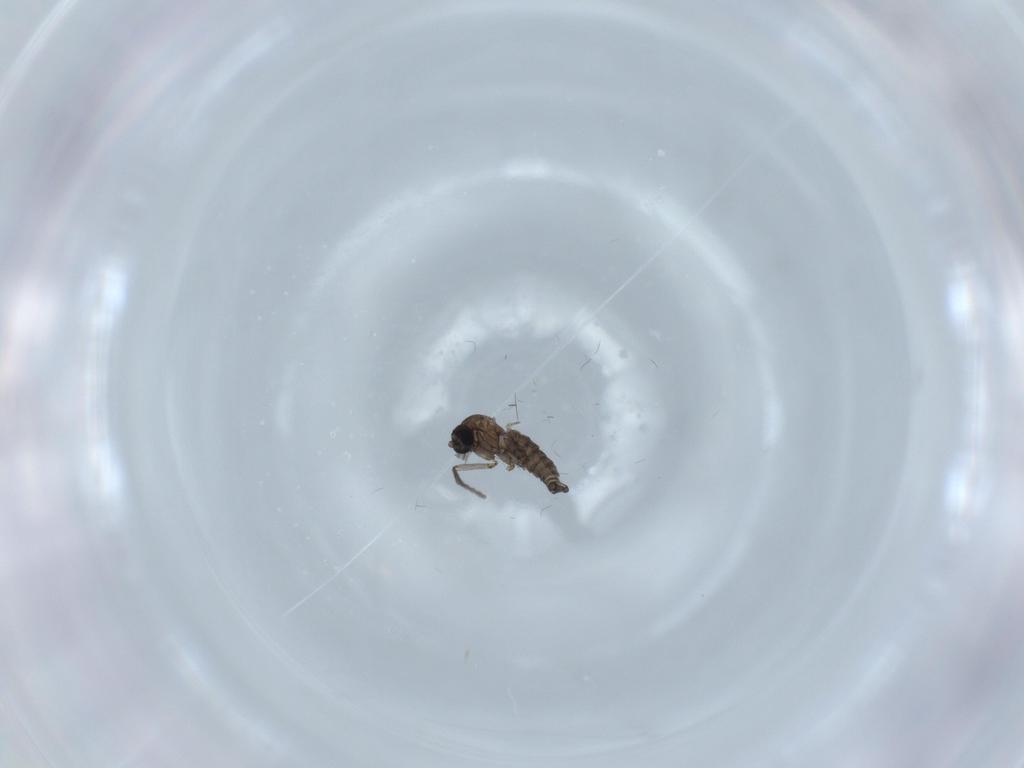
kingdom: Animalia
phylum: Arthropoda
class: Insecta
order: Diptera
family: Sciaridae
